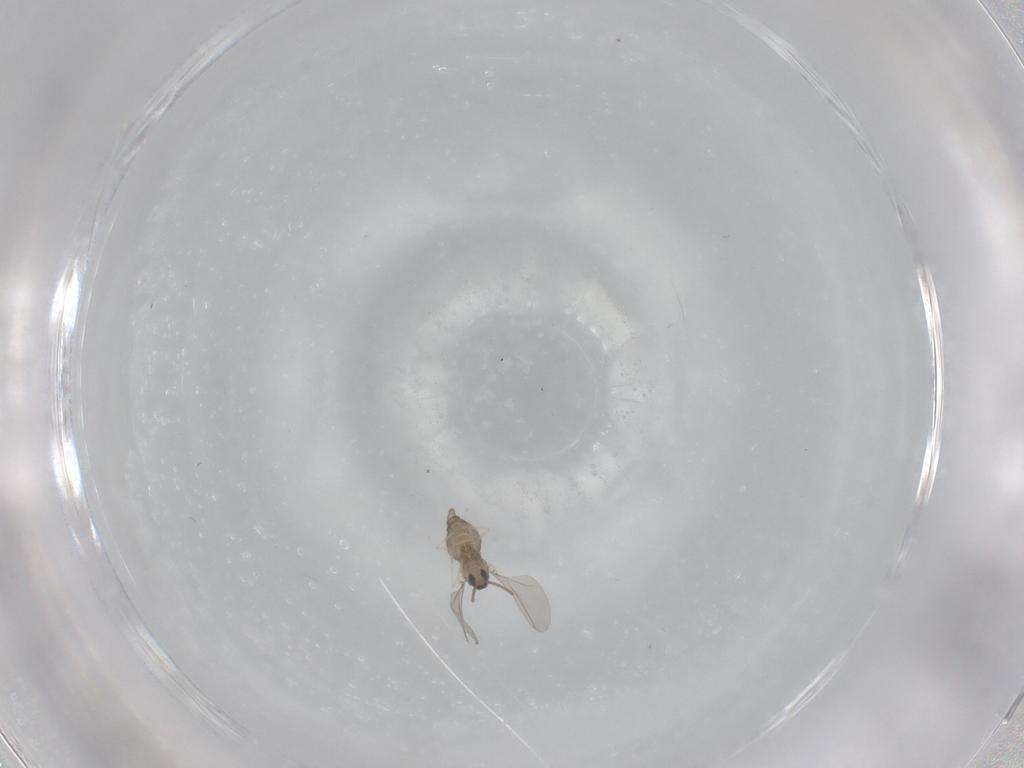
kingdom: Animalia
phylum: Arthropoda
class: Insecta
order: Diptera
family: Cecidomyiidae
